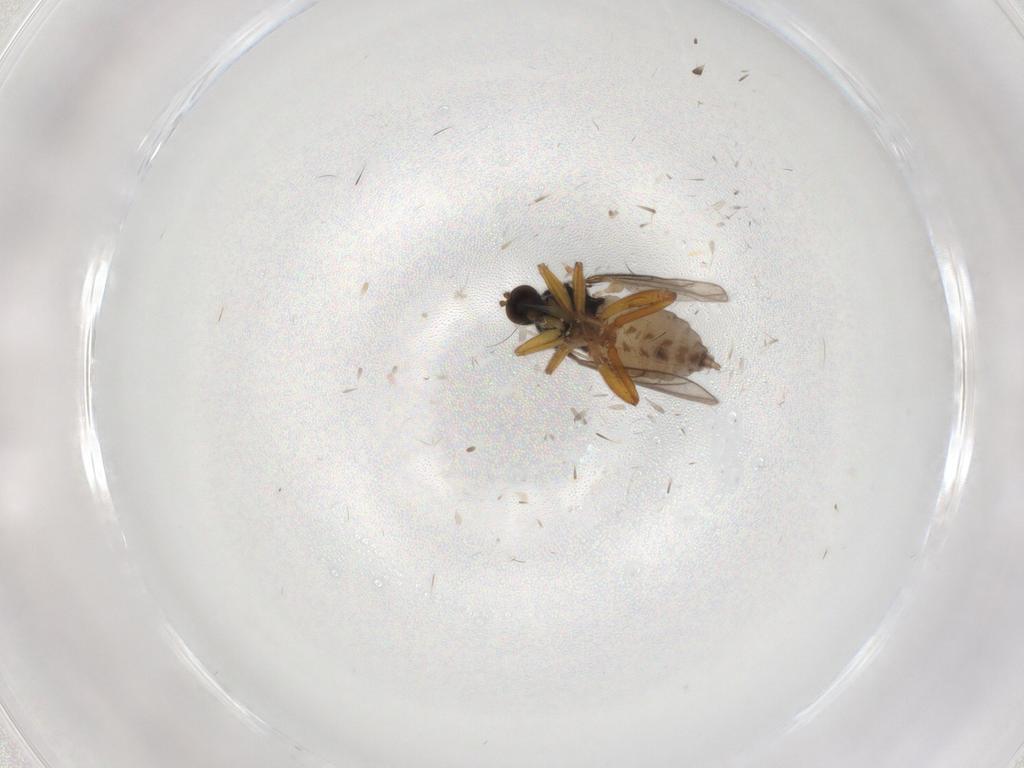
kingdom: Animalia
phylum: Arthropoda
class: Insecta
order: Diptera
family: Hybotidae
